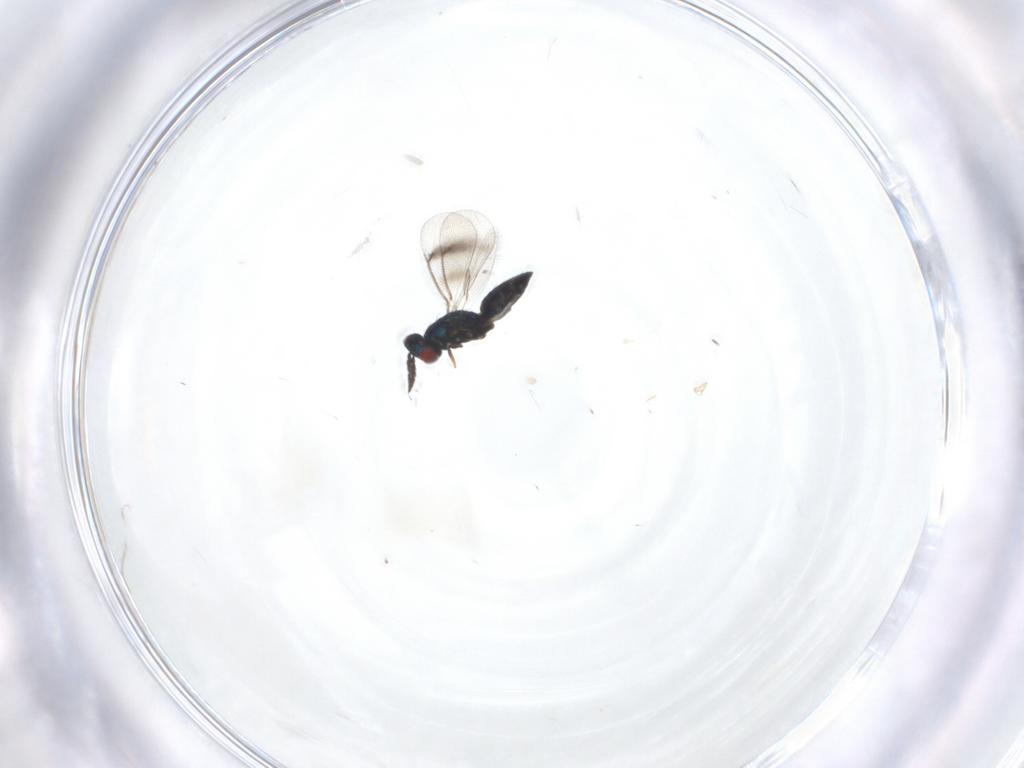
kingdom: Animalia
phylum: Arthropoda
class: Insecta
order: Hymenoptera
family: Eulophidae
